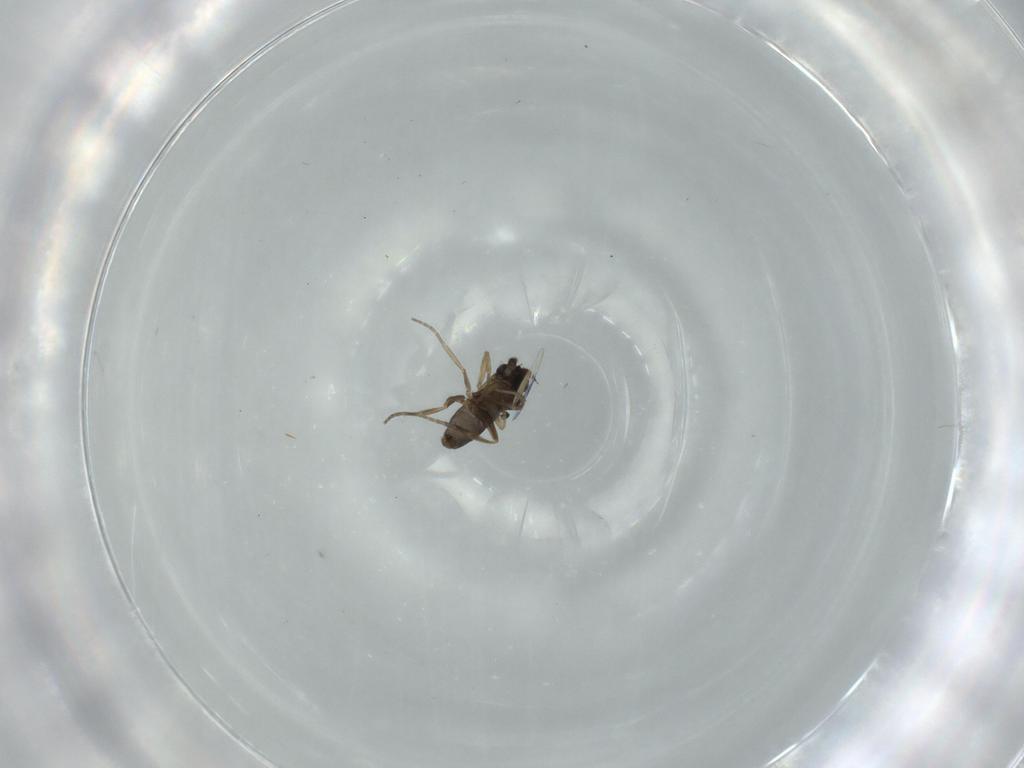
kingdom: Animalia
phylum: Arthropoda
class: Insecta
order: Diptera
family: Phoridae
